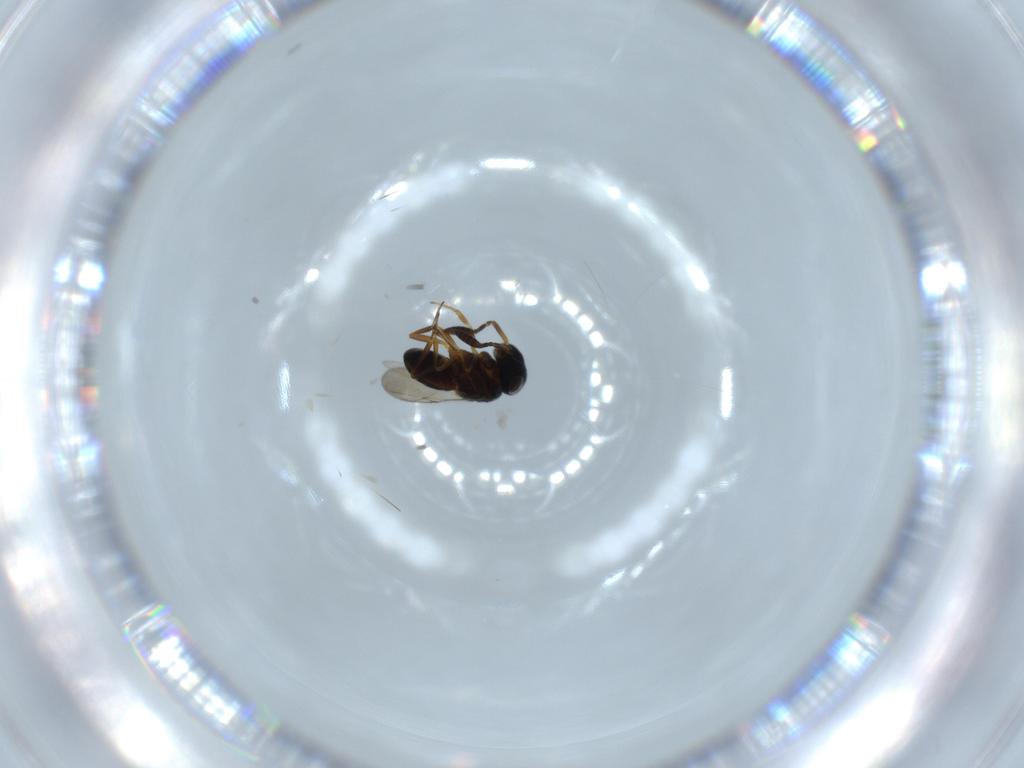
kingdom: Animalia
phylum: Arthropoda
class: Insecta
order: Hymenoptera
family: Scelionidae
